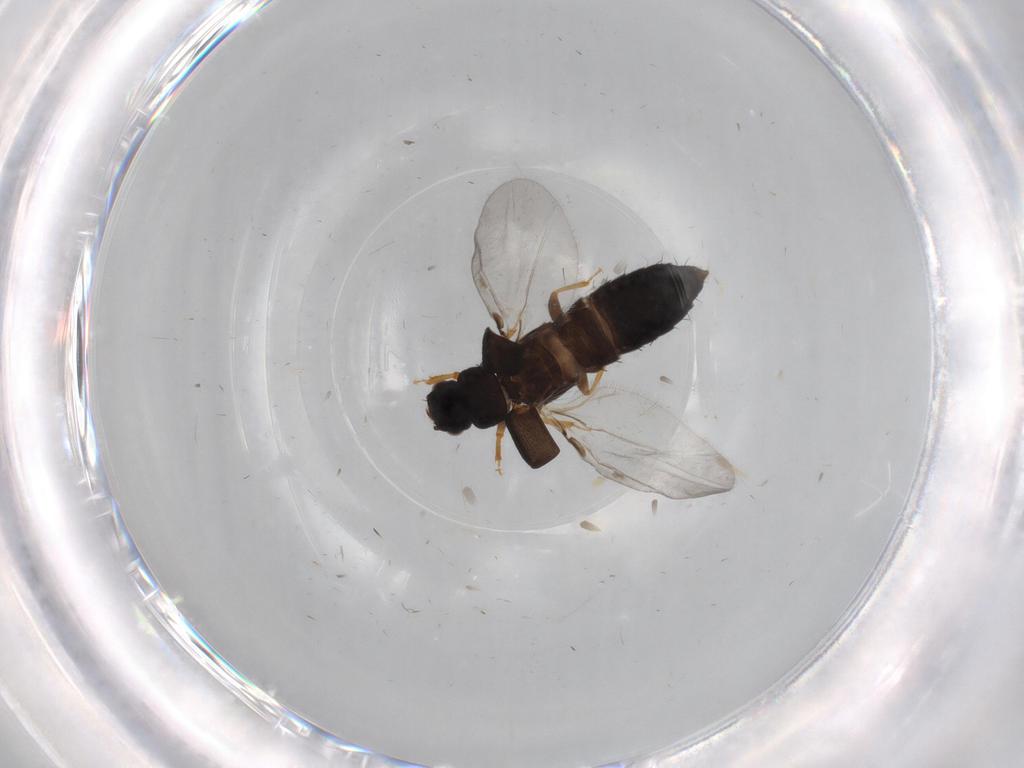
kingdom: Animalia
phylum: Arthropoda
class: Insecta
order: Coleoptera
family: Staphylinidae
